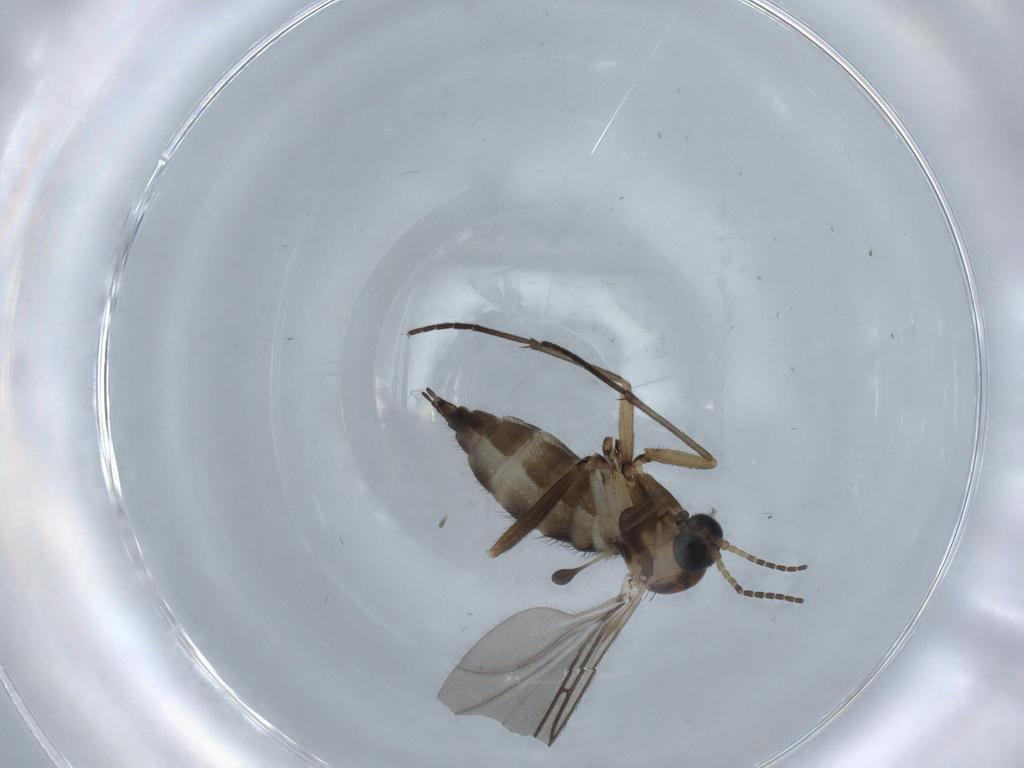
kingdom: Animalia
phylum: Arthropoda
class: Insecta
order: Diptera
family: Sciaridae
